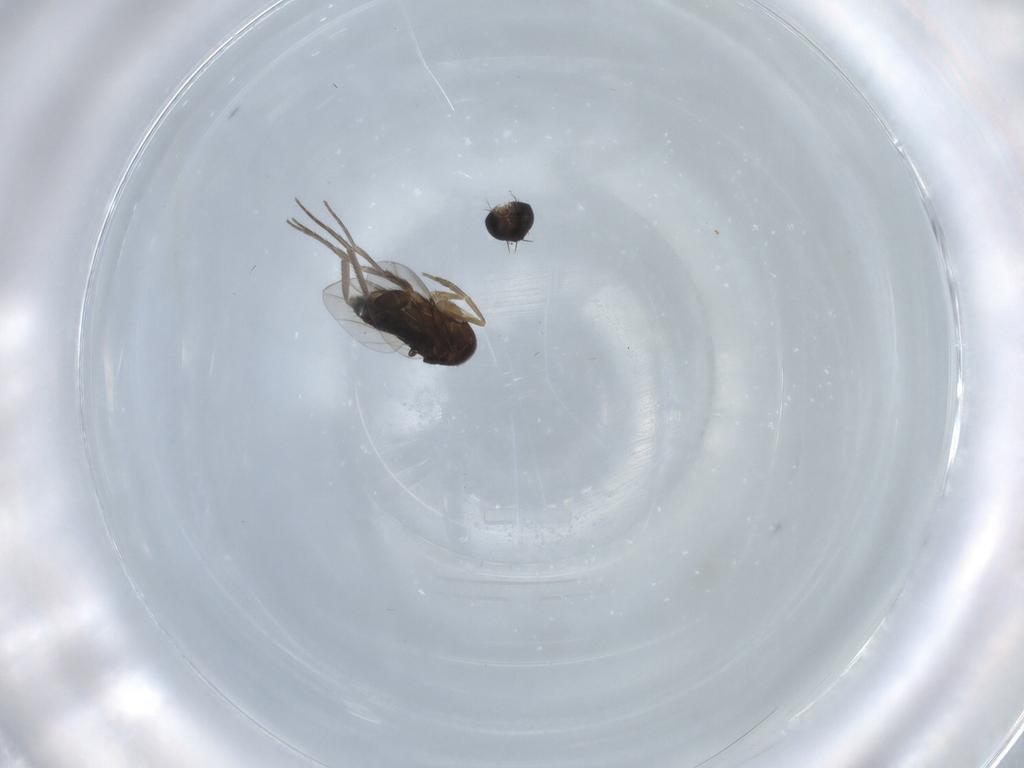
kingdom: Animalia
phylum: Arthropoda
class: Insecta
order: Diptera
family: Phoridae
